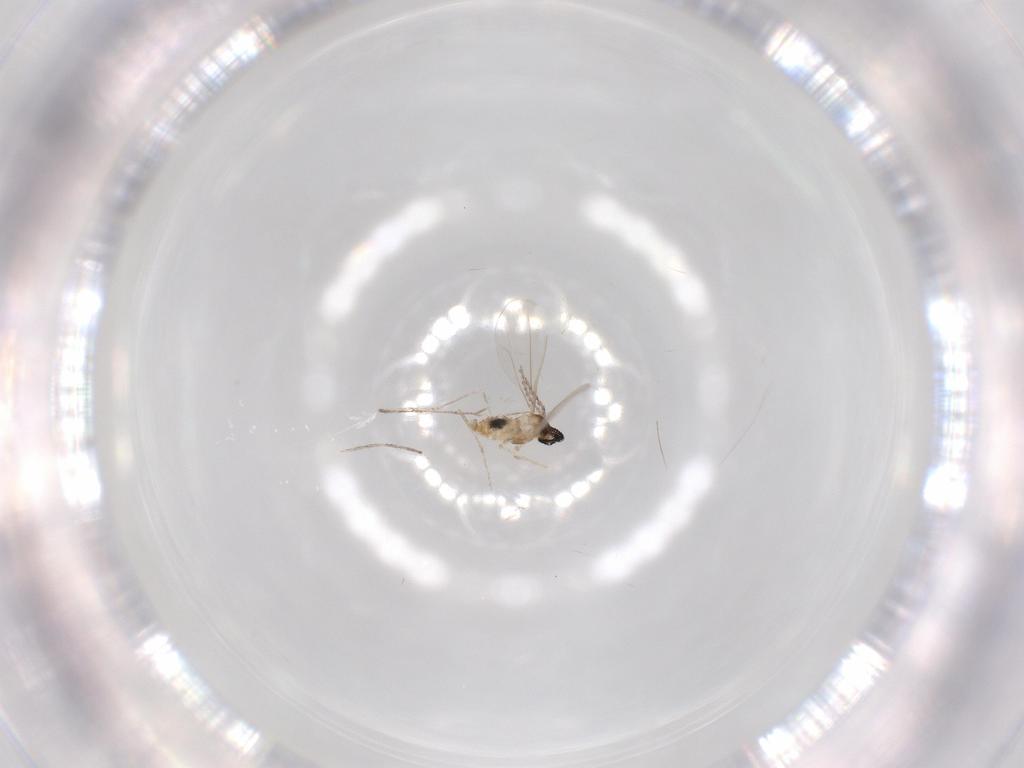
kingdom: Animalia
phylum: Arthropoda
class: Insecta
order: Diptera
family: Cecidomyiidae
